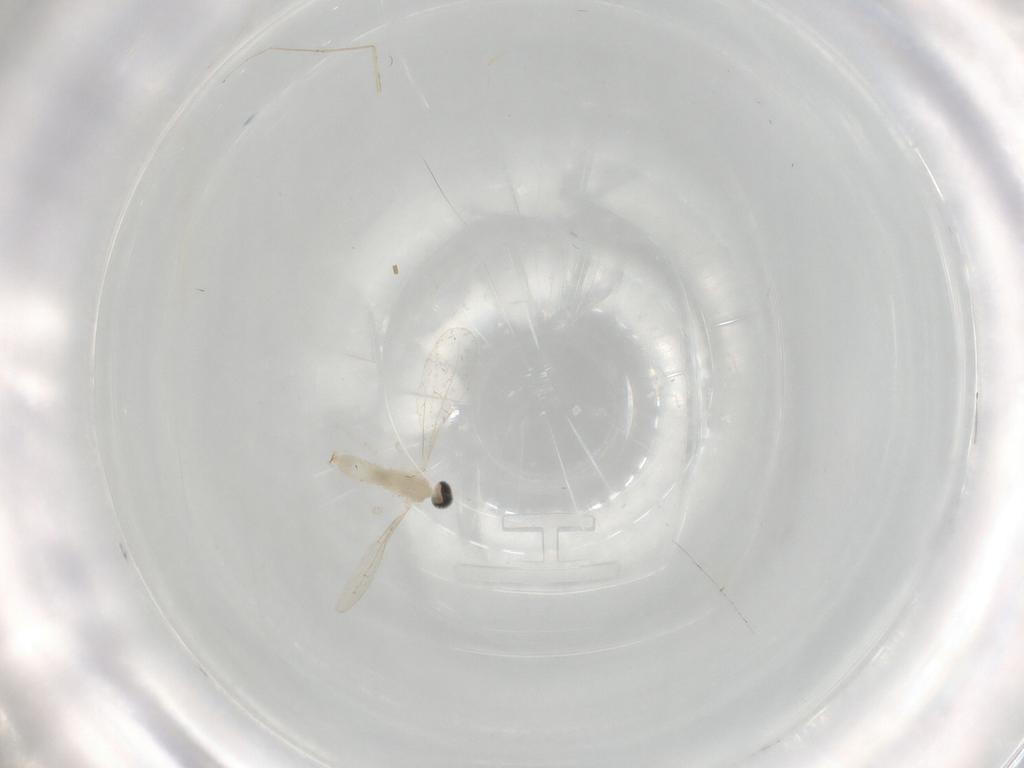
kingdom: Animalia
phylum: Arthropoda
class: Insecta
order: Diptera
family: Cecidomyiidae
